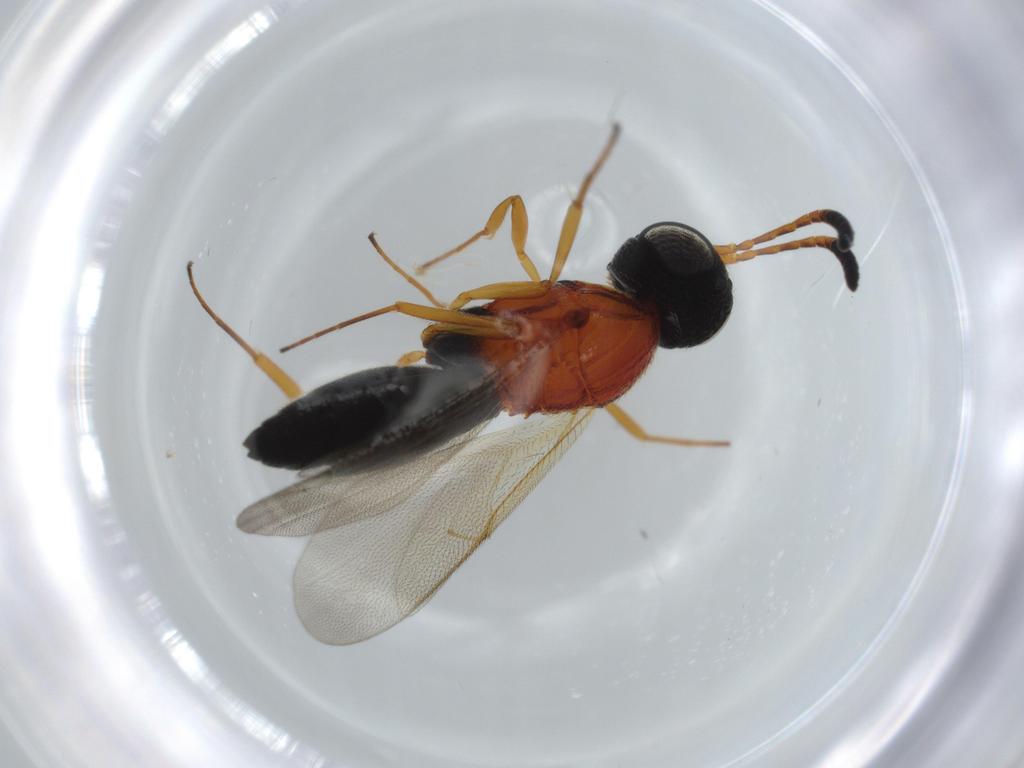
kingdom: Animalia
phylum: Arthropoda
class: Insecta
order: Hymenoptera
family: Scelionidae
